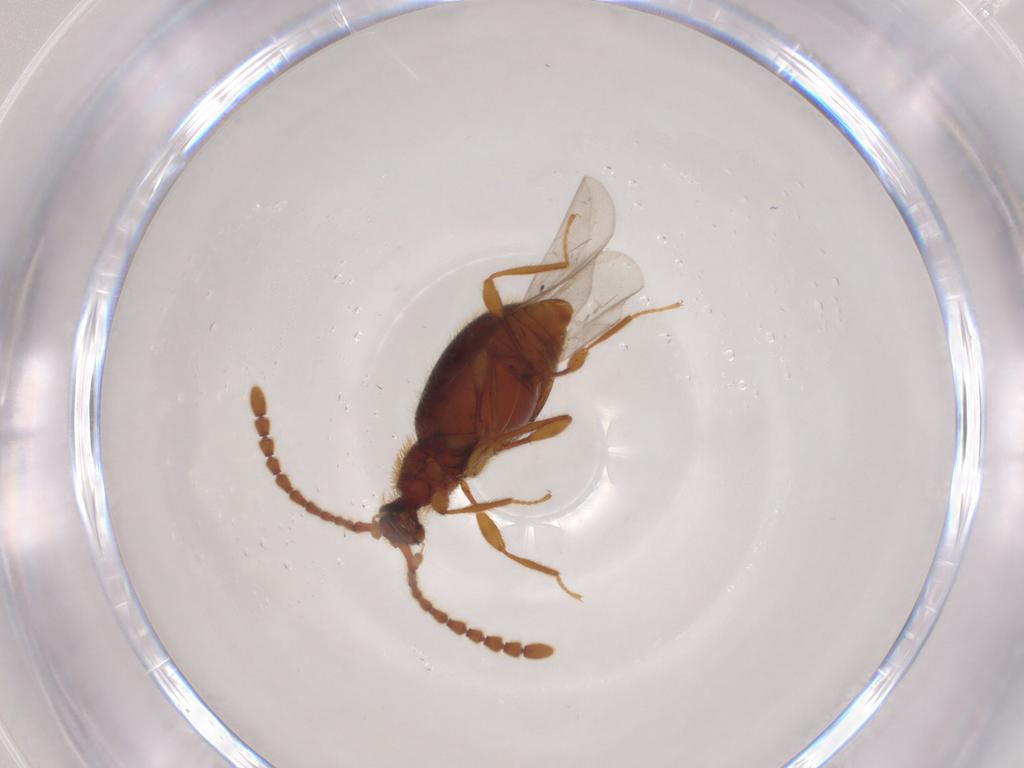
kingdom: Animalia
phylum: Arthropoda
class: Insecta
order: Coleoptera
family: Staphylinidae
